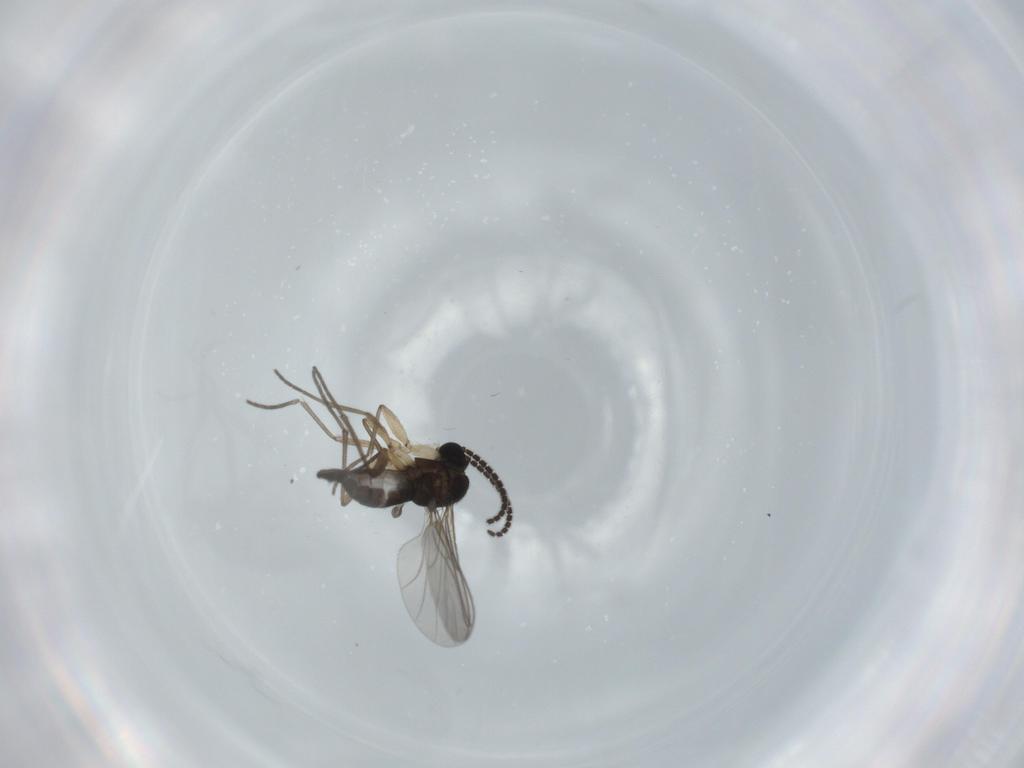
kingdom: Animalia
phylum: Arthropoda
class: Insecta
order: Diptera
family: Sciaridae
